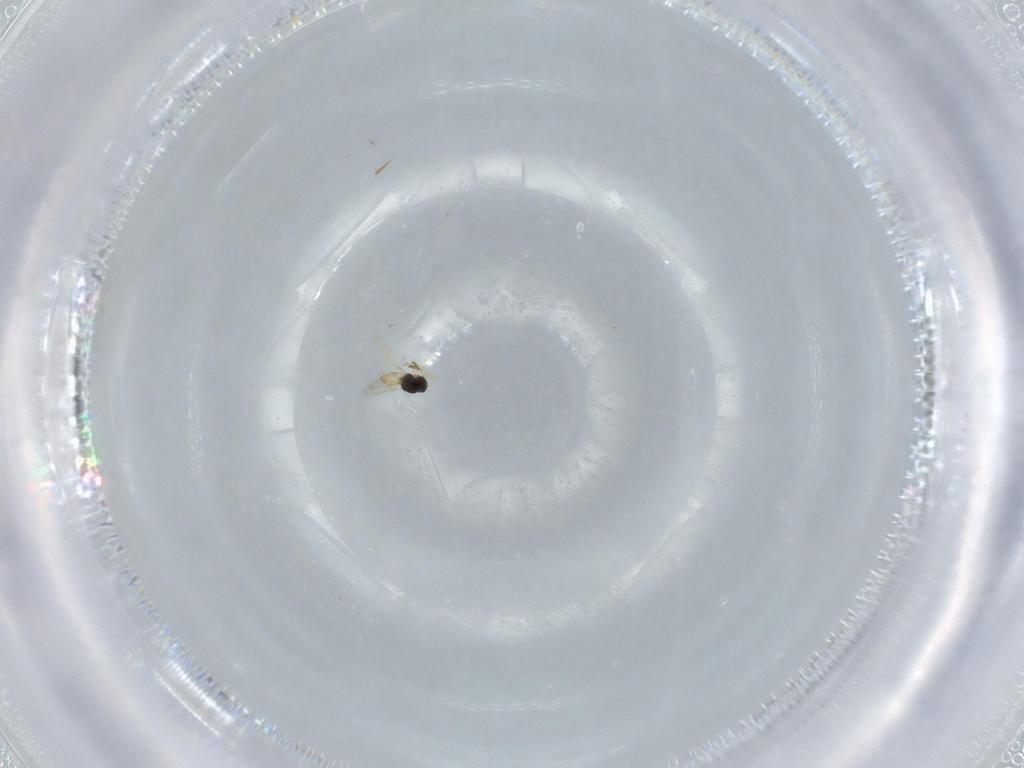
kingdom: Animalia
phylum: Arthropoda
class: Insecta
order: Hymenoptera
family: Scelionidae
